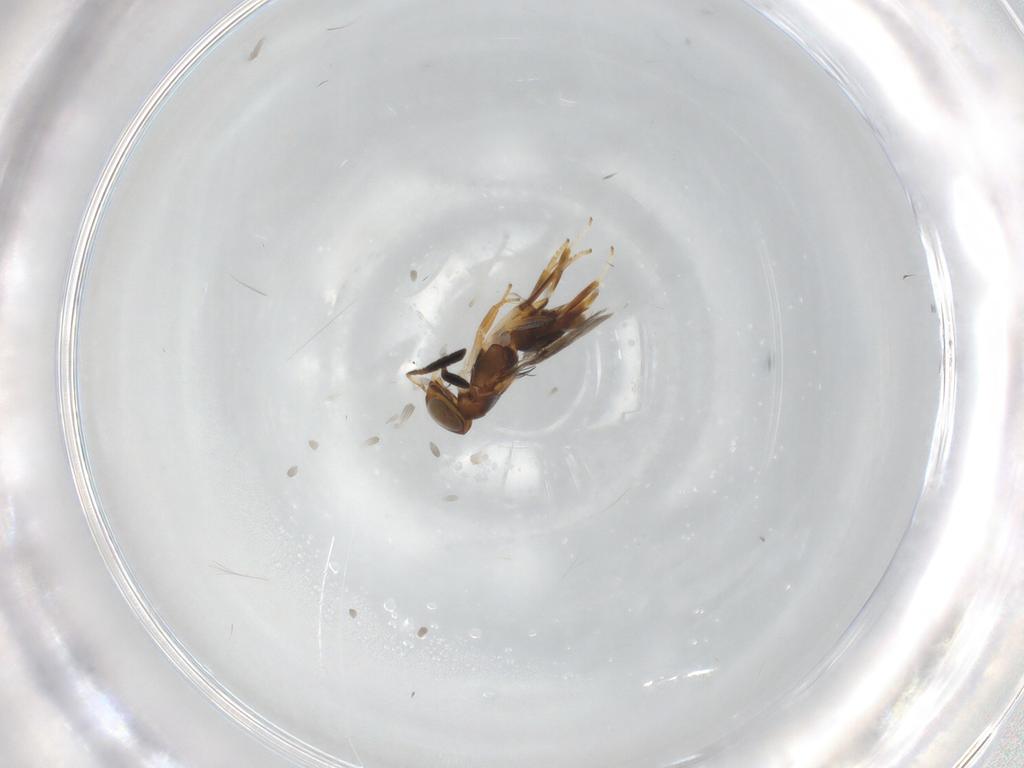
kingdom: Animalia
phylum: Arthropoda
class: Insecta
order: Hymenoptera
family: Encyrtidae
